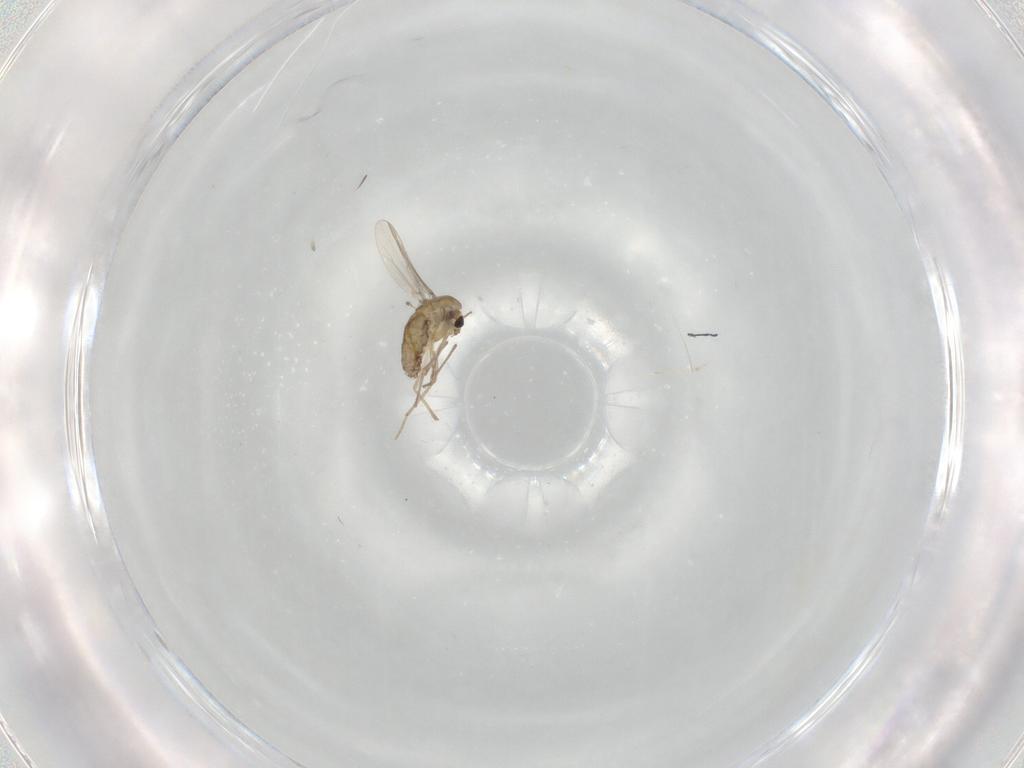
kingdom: Animalia
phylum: Arthropoda
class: Insecta
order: Diptera
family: Chironomidae
